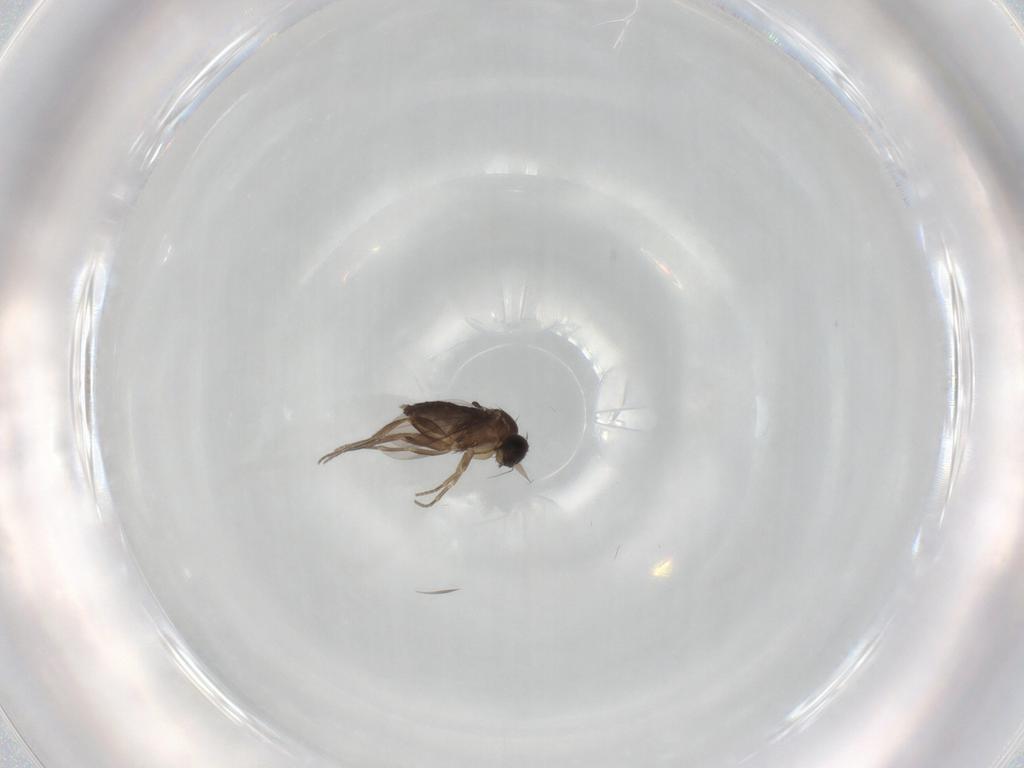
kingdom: Animalia
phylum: Arthropoda
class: Insecta
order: Diptera
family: Phoridae
